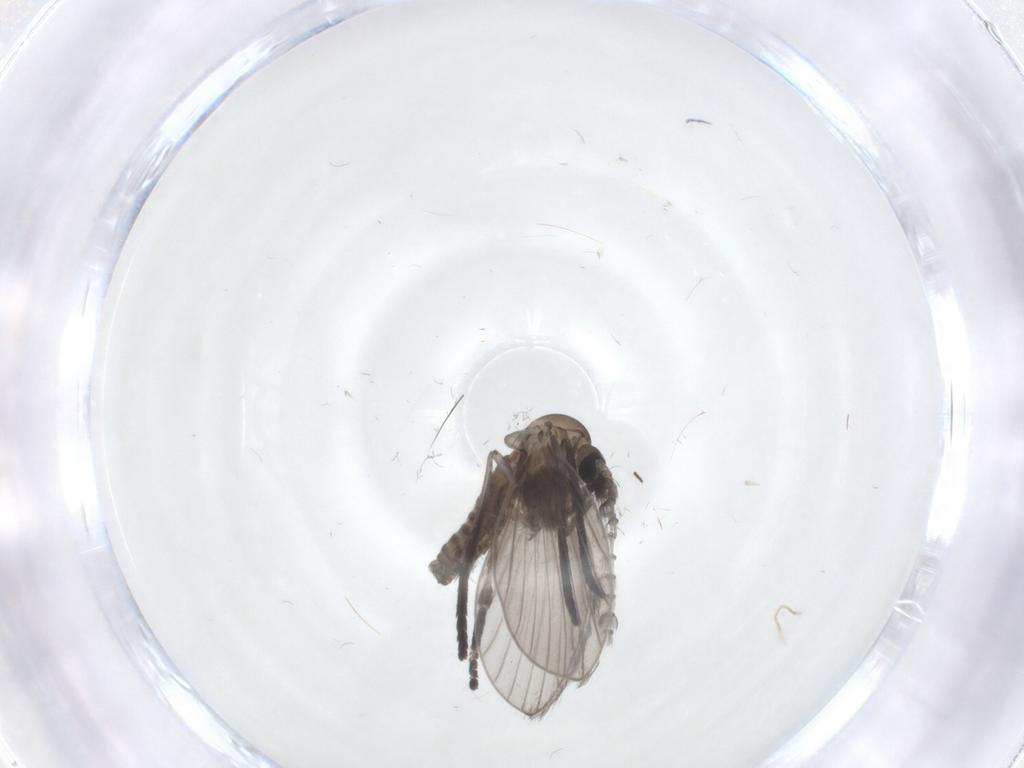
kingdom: Animalia
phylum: Arthropoda
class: Insecta
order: Diptera
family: Psychodidae
